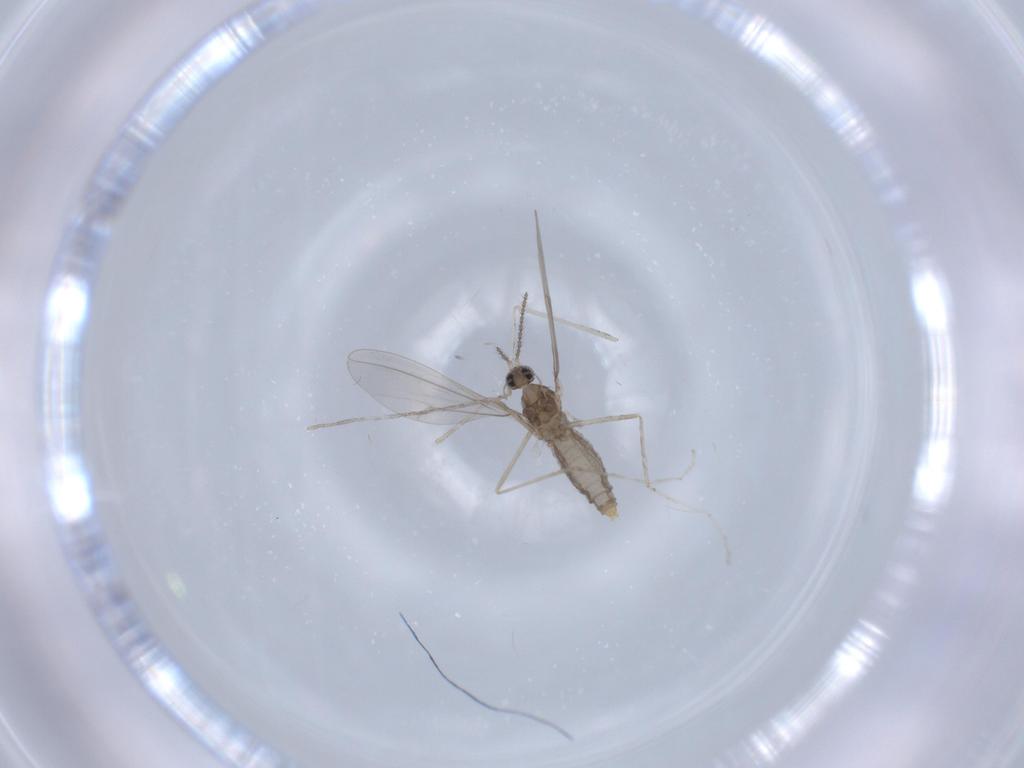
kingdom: Animalia
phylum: Arthropoda
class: Insecta
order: Diptera
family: Cecidomyiidae
